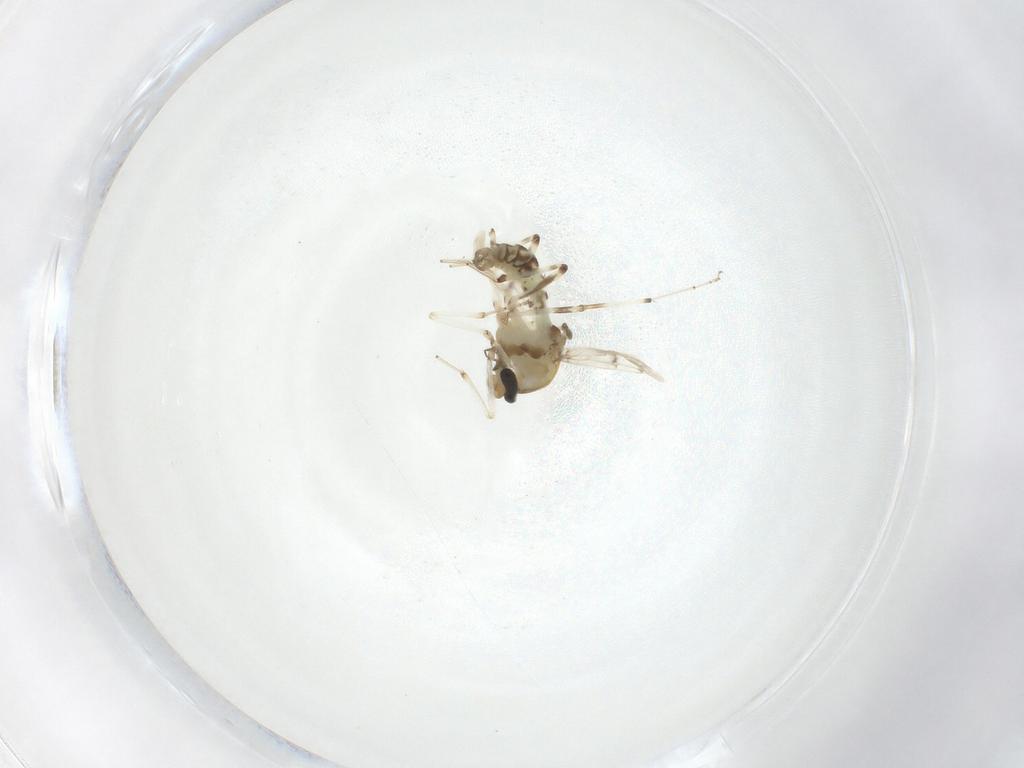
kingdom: Animalia
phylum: Arthropoda
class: Insecta
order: Diptera
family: Ceratopogonidae
